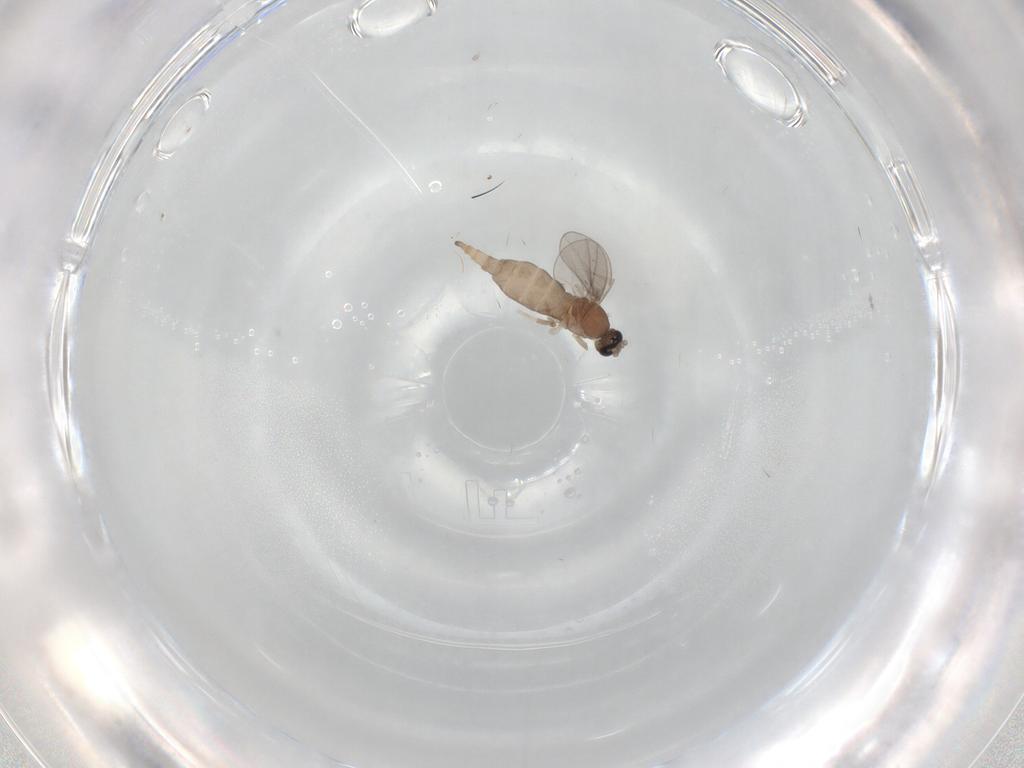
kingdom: Animalia
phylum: Arthropoda
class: Insecta
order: Diptera
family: Cecidomyiidae
